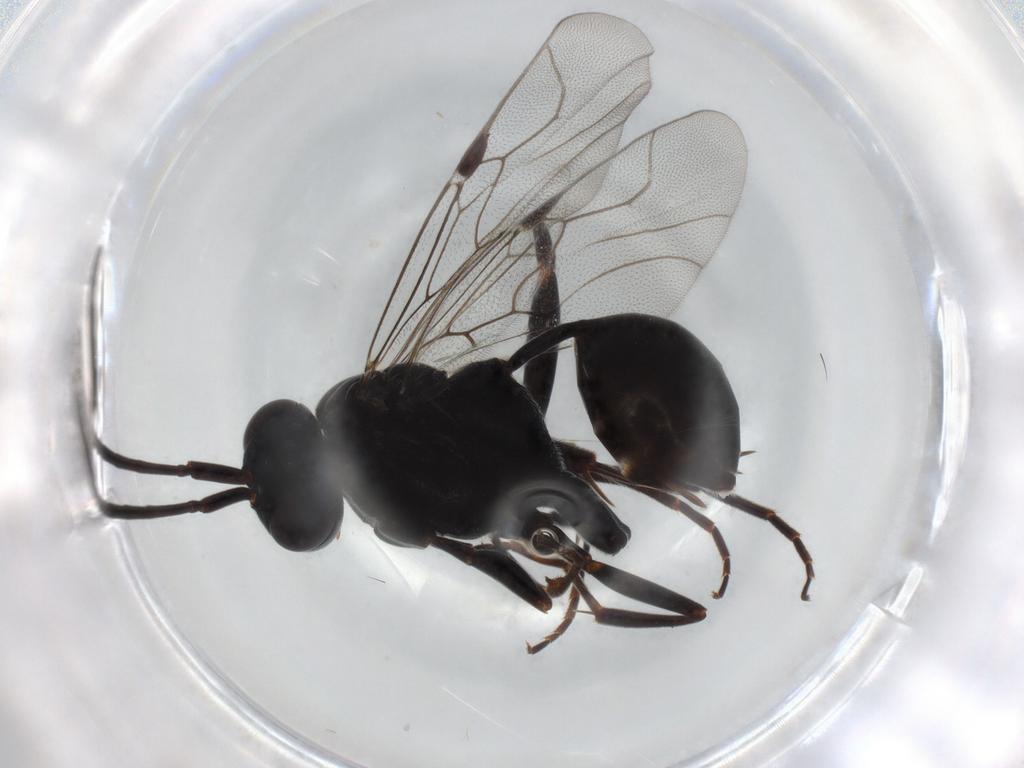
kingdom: Animalia
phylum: Arthropoda
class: Insecta
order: Hymenoptera
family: Evaniidae
